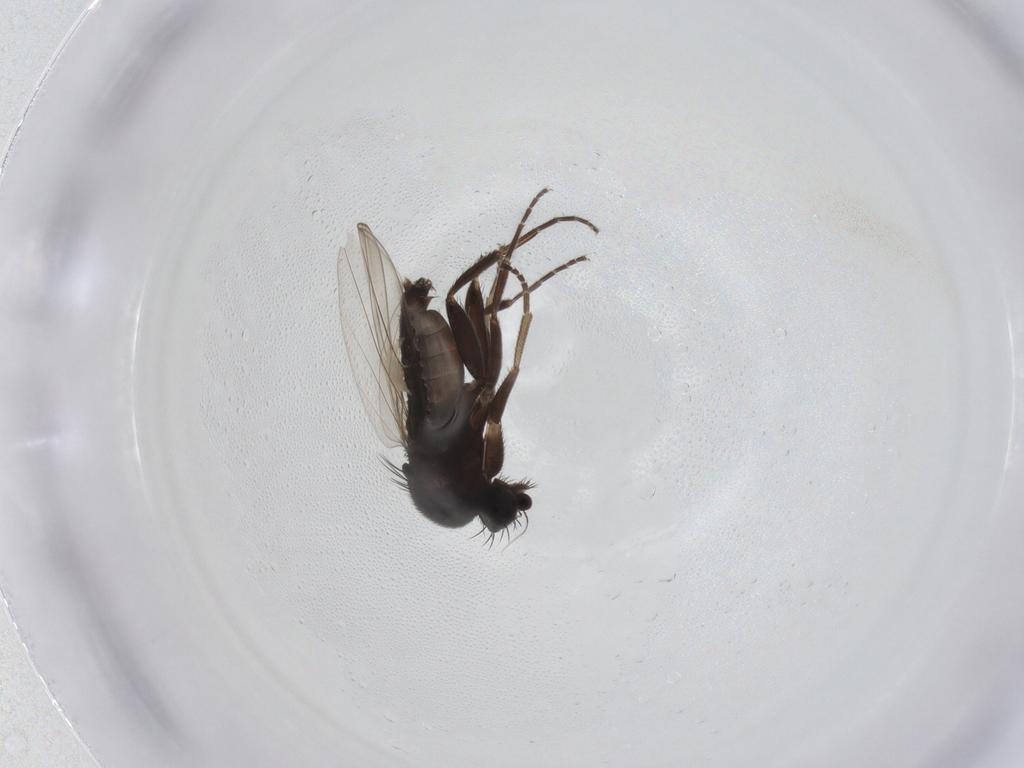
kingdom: Animalia
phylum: Arthropoda
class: Insecta
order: Diptera
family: Phoridae
